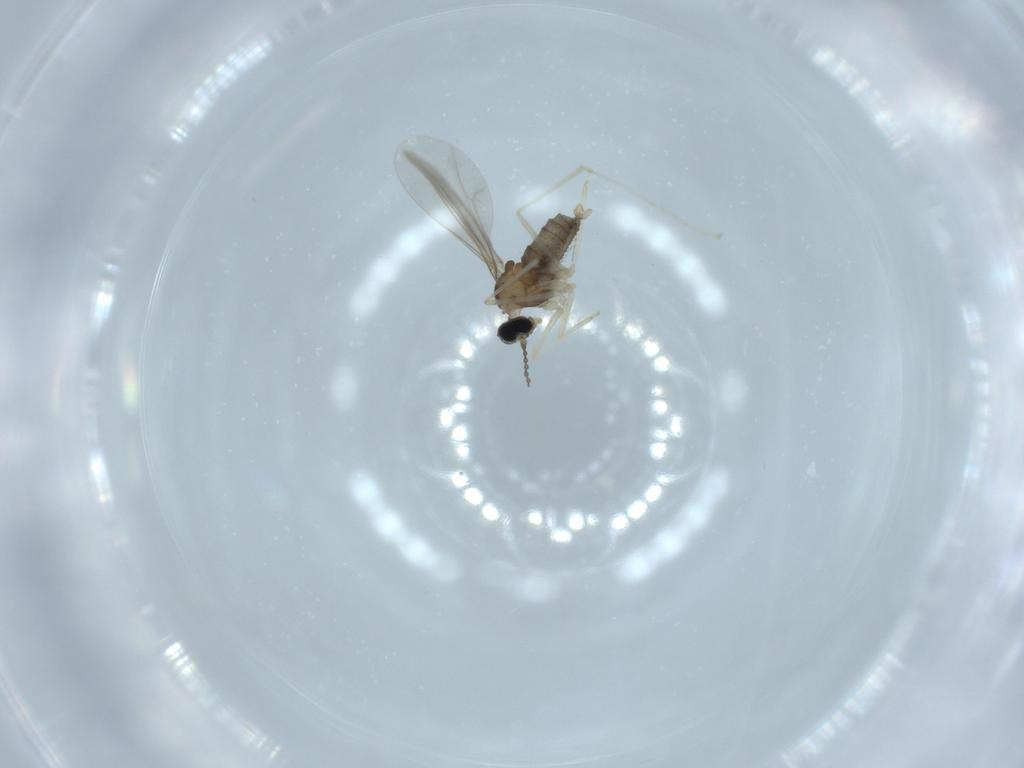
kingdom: Animalia
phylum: Arthropoda
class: Insecta
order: Diptera
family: Cecidomyiidae
